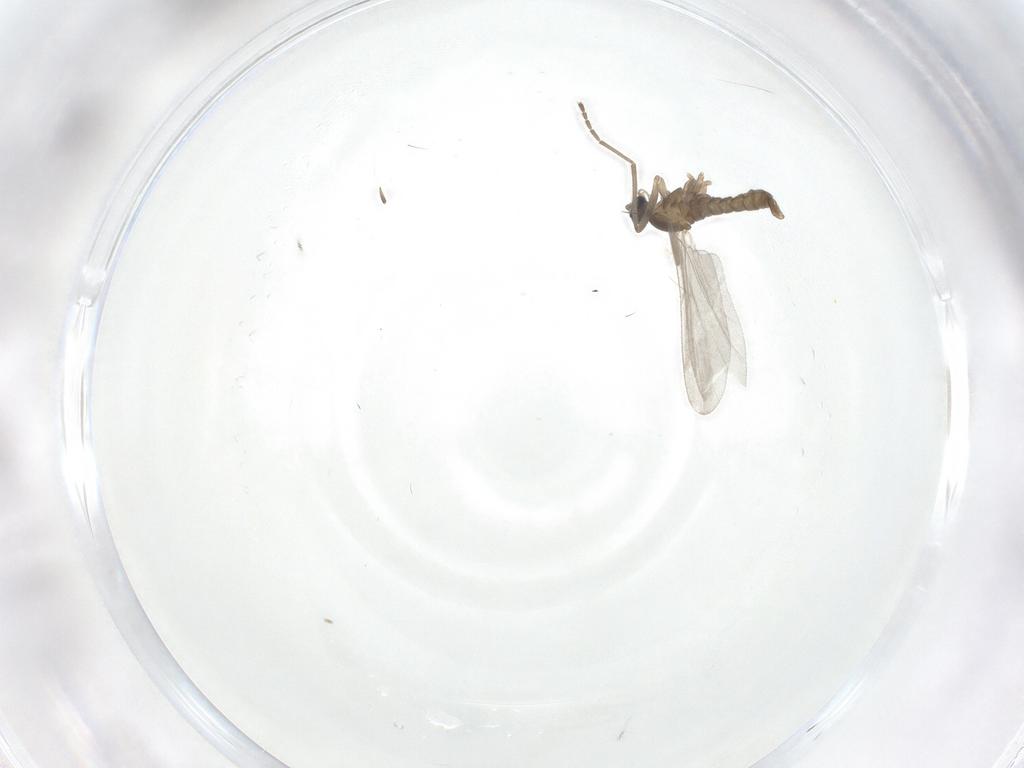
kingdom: Animalia
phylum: Arthropoda
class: Insecta
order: Diptera
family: Cecidomyiidae
